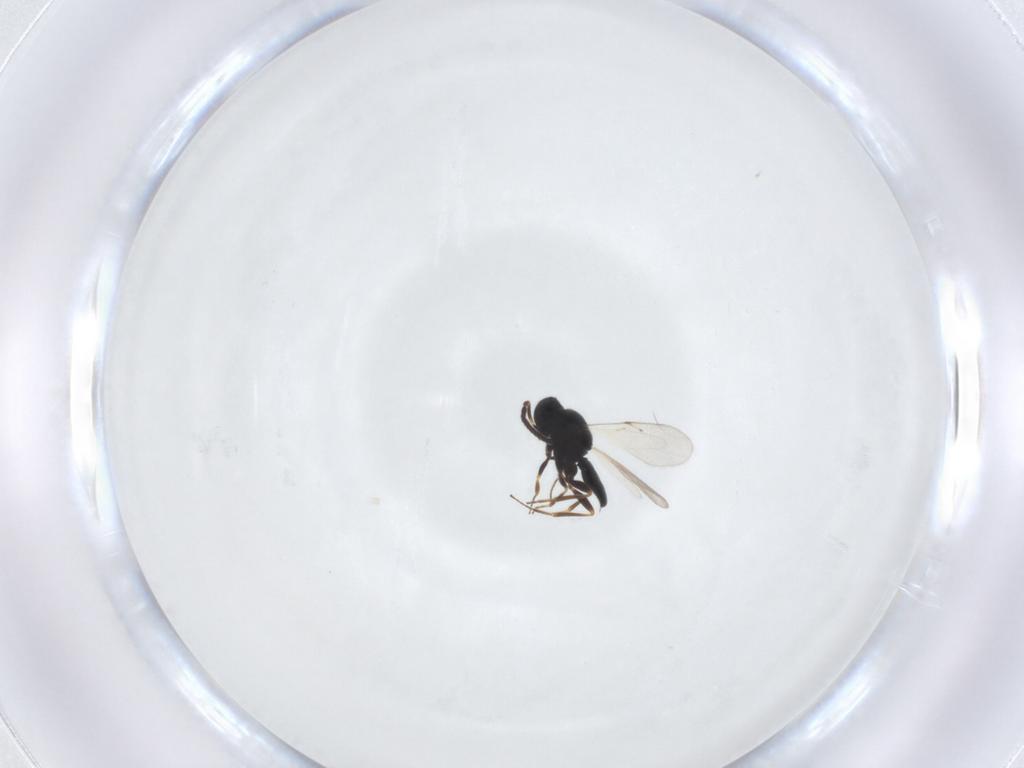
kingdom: Animalia
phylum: Arthropoda
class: Insecta
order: Hymenoptera
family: Scelionidae
